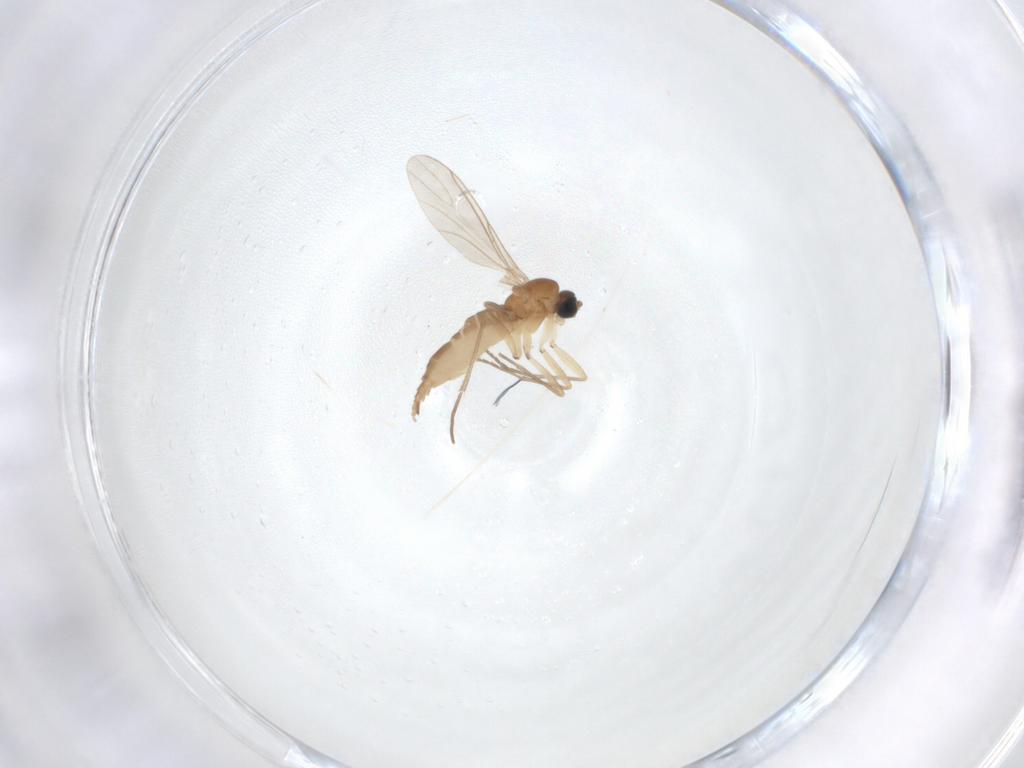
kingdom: Animalia
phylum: Arthropoda
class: Insecta
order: Diptera
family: Sciaridae
